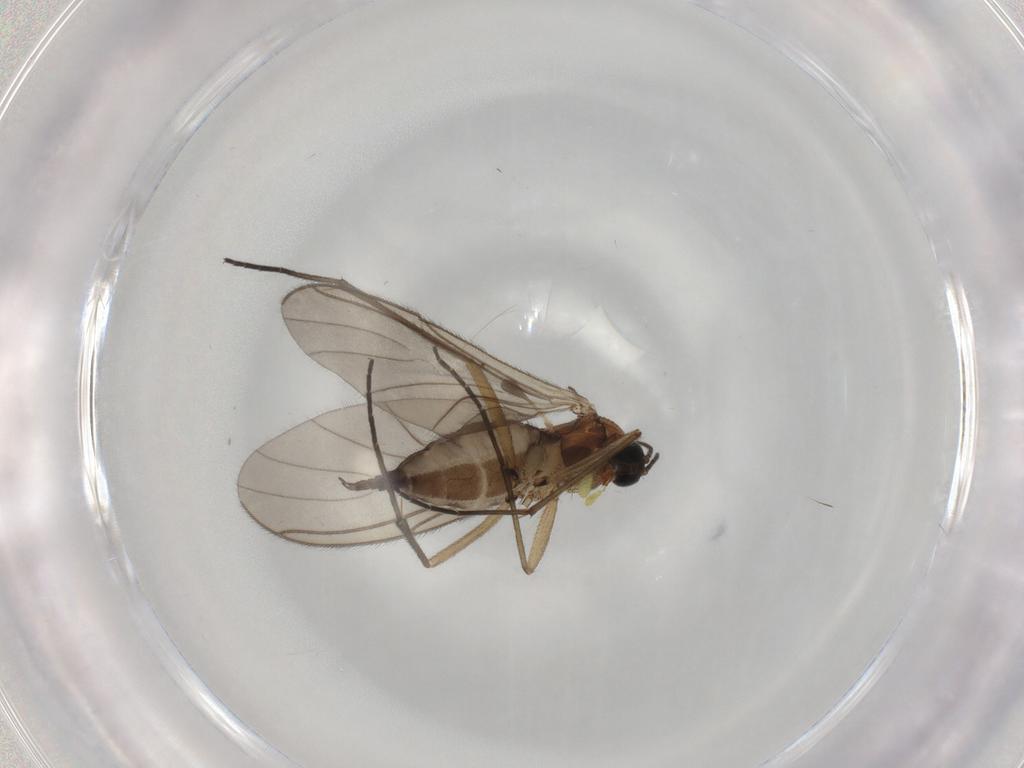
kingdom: Animalia
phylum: Arthropoda
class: Insecta
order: Diptera
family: Sciaridae
